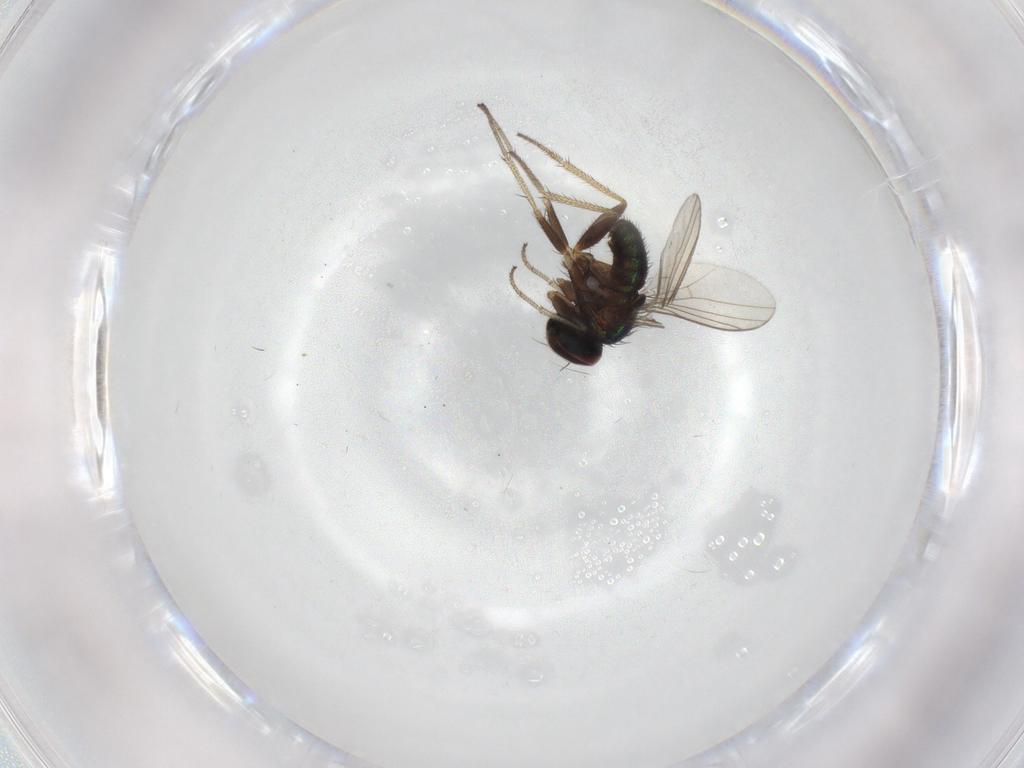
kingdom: Animalia
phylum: Arthropoda
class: Insecta
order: Diptera
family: Dolichopodidae
